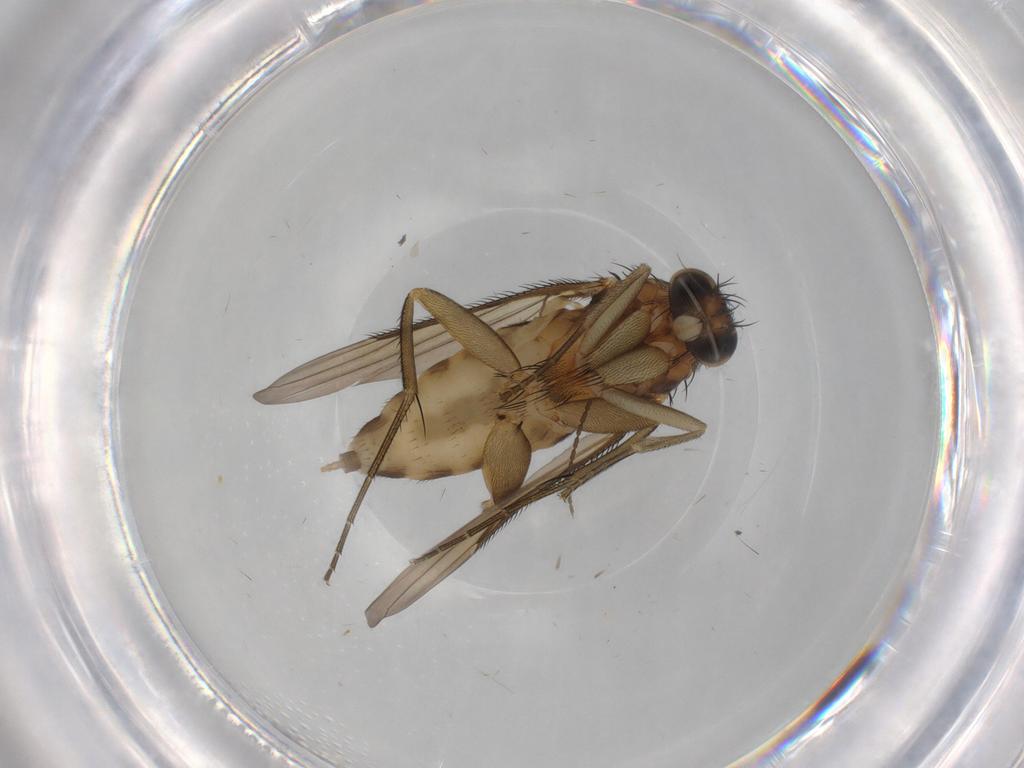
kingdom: Animalia
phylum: Arthropoda
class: Insecta
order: Diptera
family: Phoridae
